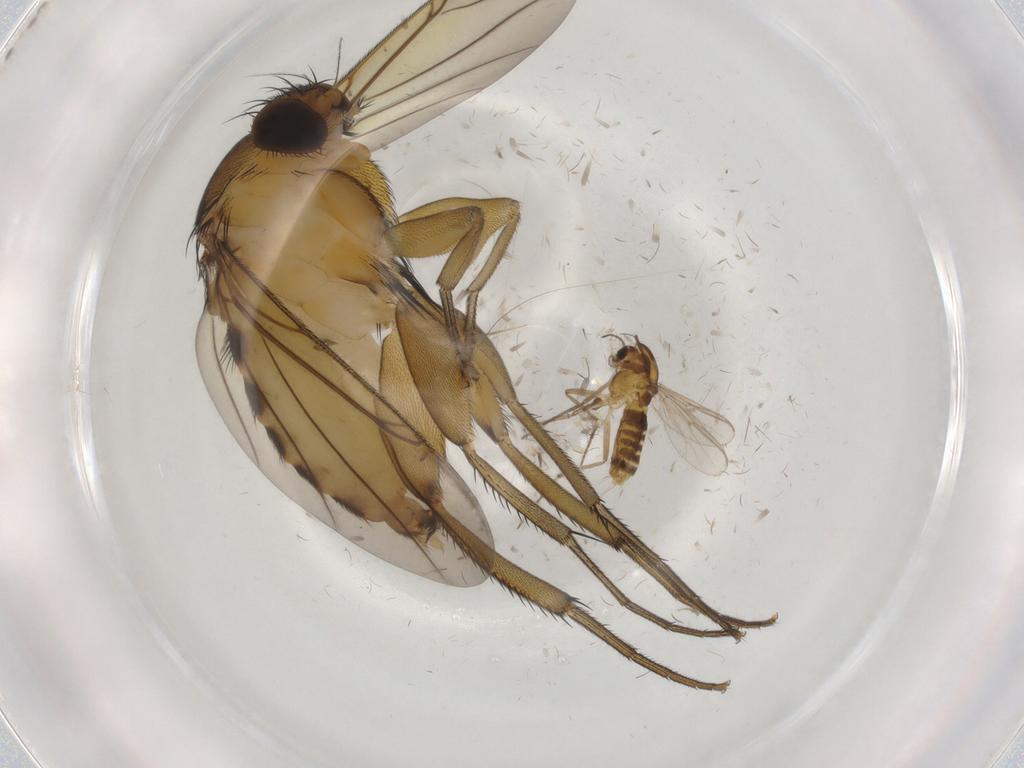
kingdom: Animalia
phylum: Arthropoda
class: Insecta
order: Diptera
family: Phoridae
